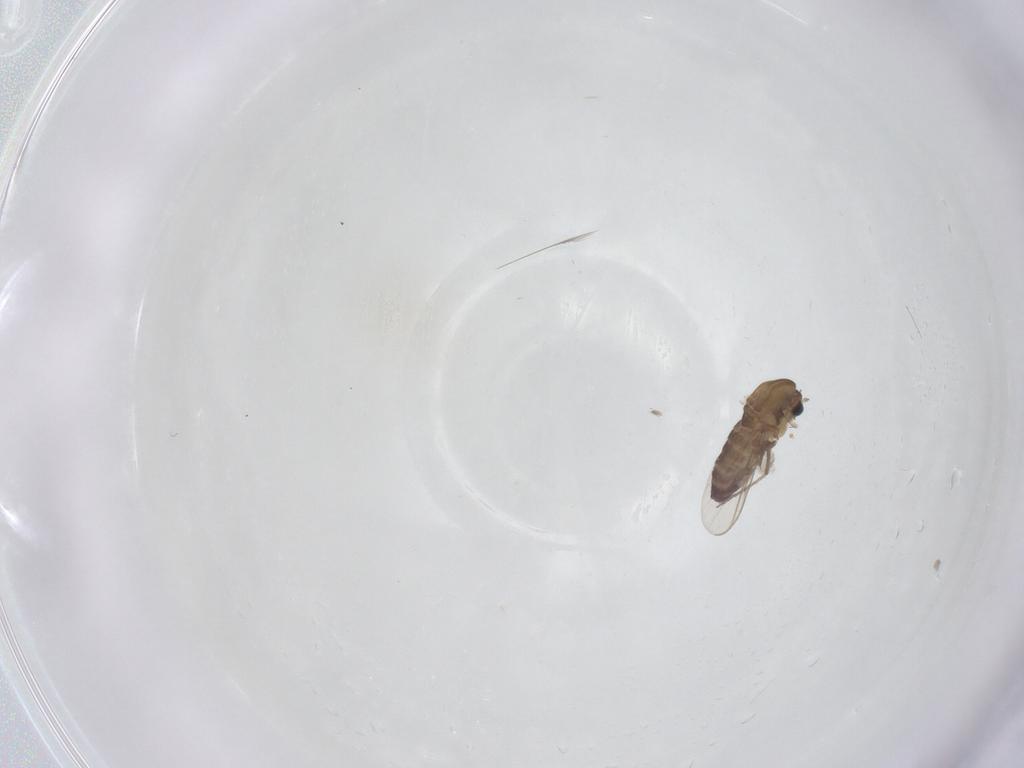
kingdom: Animalia
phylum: Arthropoda
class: Insecta
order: Diptera
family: Chironomidae
